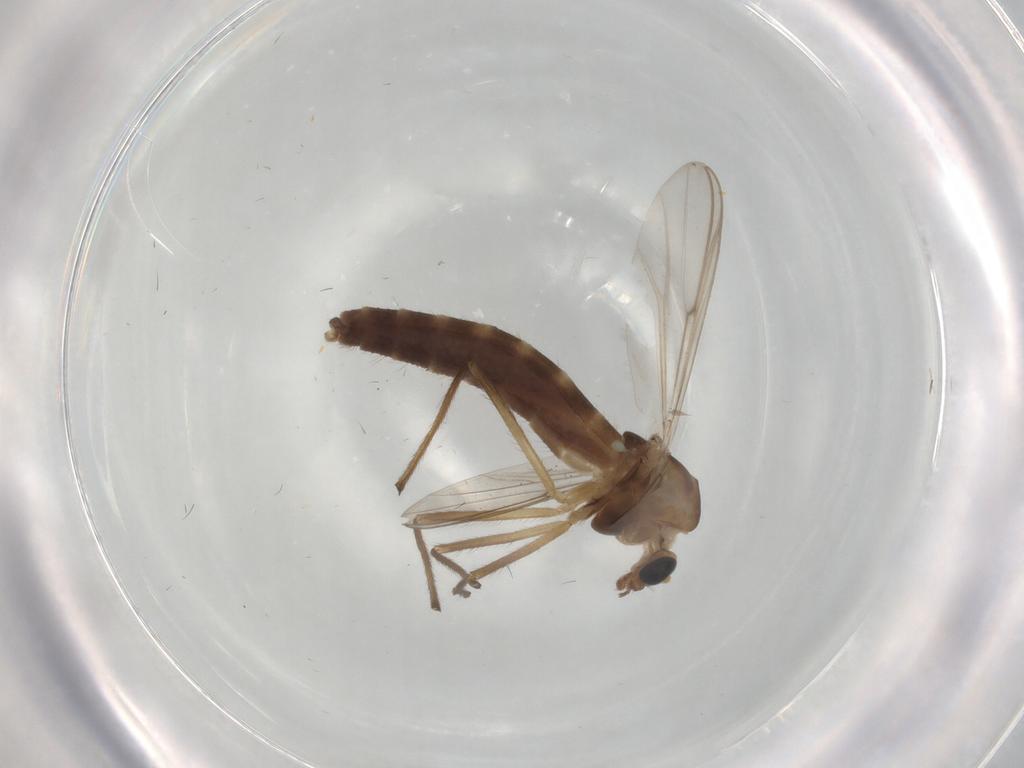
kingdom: Animalia
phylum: Arthropoda
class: Insecta
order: Diptera
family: Chironomidae
